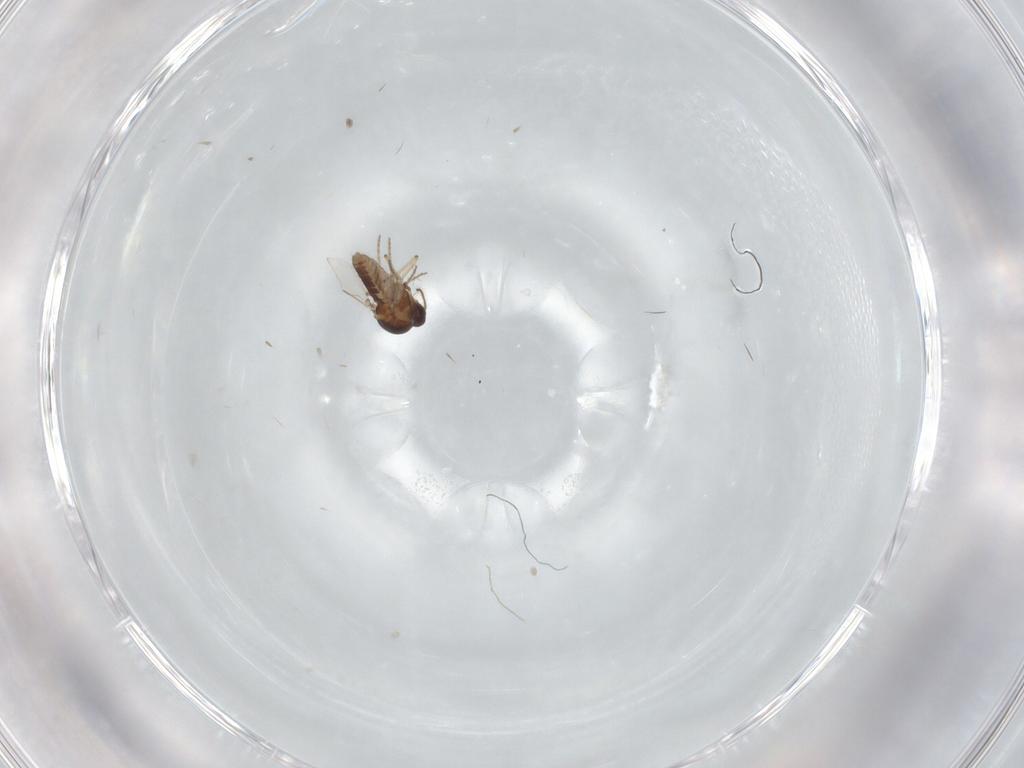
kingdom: Animalia
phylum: Arthropoda
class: Insecta
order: Diptera
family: Ceratopogonidae
